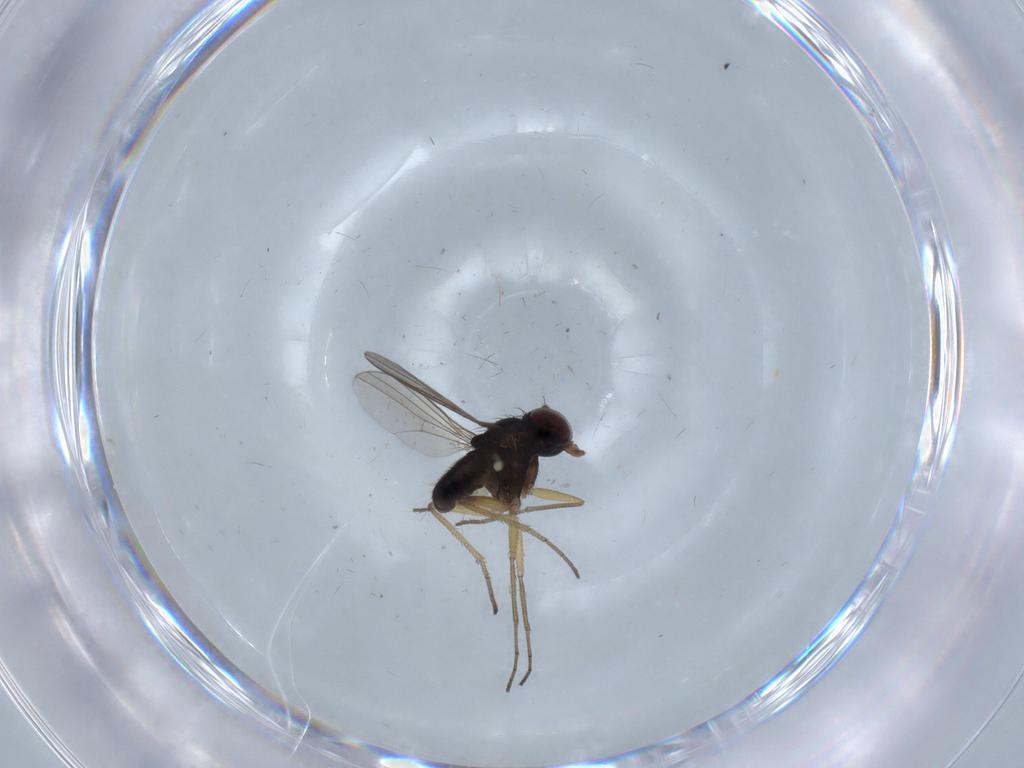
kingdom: Animalia
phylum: Arthropoda
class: Insecta
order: Diptera
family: Dolichopodidae
